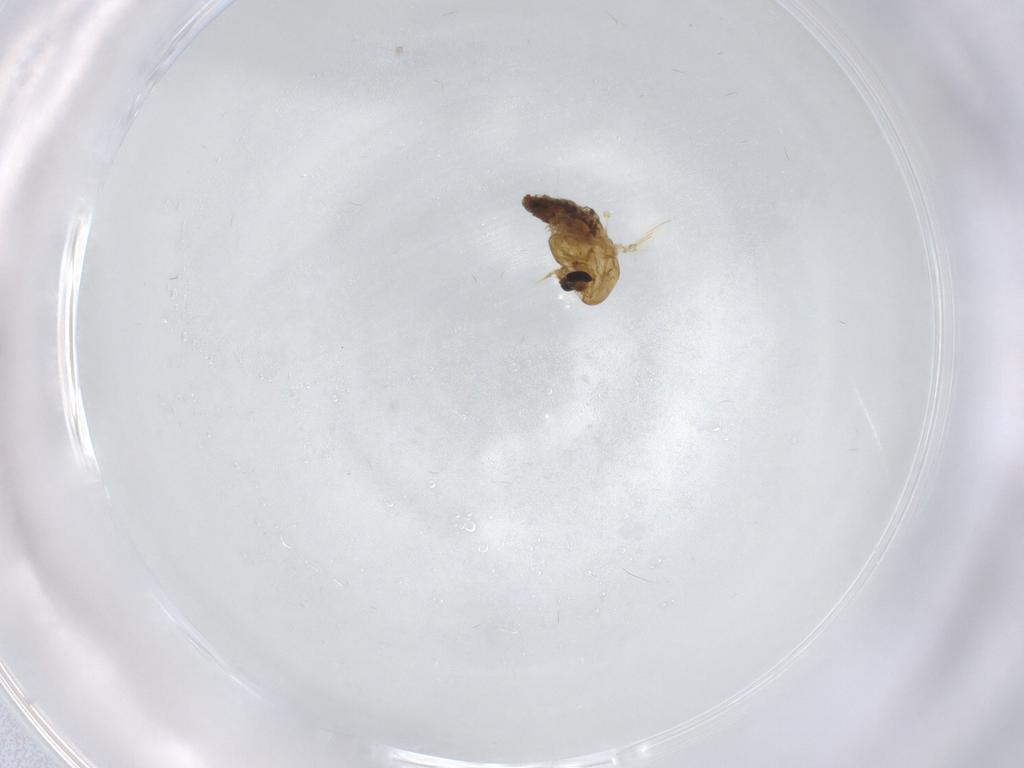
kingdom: Animalia
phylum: Arthropoda
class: Insecta
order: Diptera
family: Chironomidae
